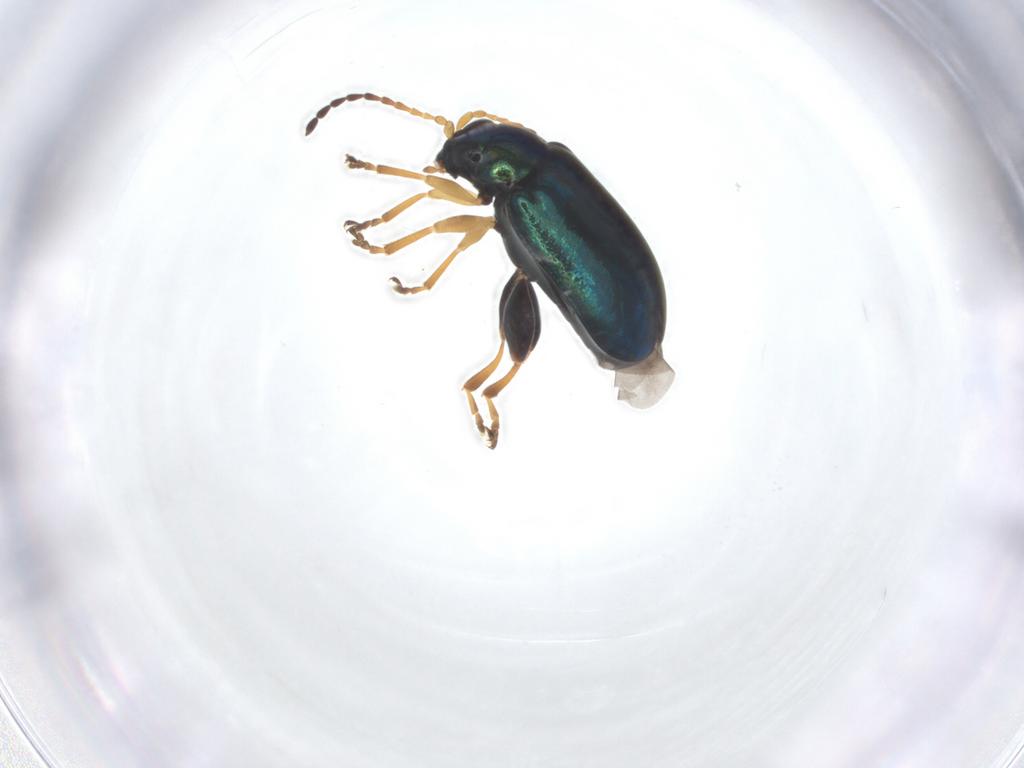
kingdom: Animalia
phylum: Arthropoda
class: Insecta
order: Coleoptera
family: Chrysomelidae
